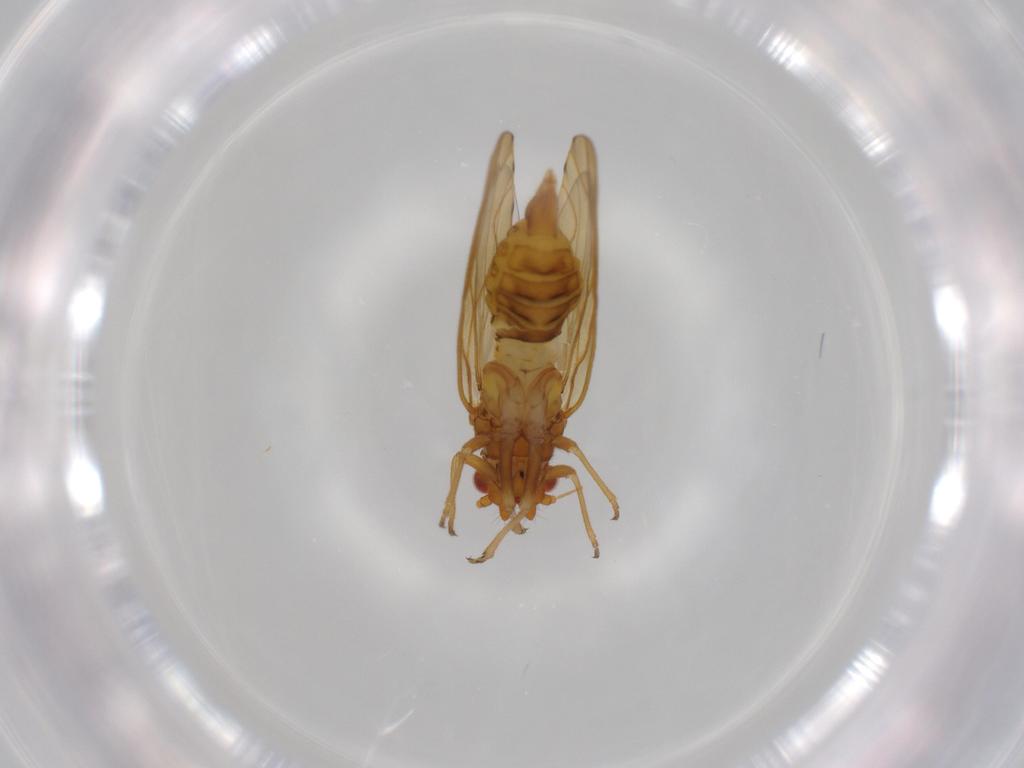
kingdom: Animalia
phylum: Arthropoda
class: Insecta
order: Hemiptera
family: Psylloidea_incertae_sedis
